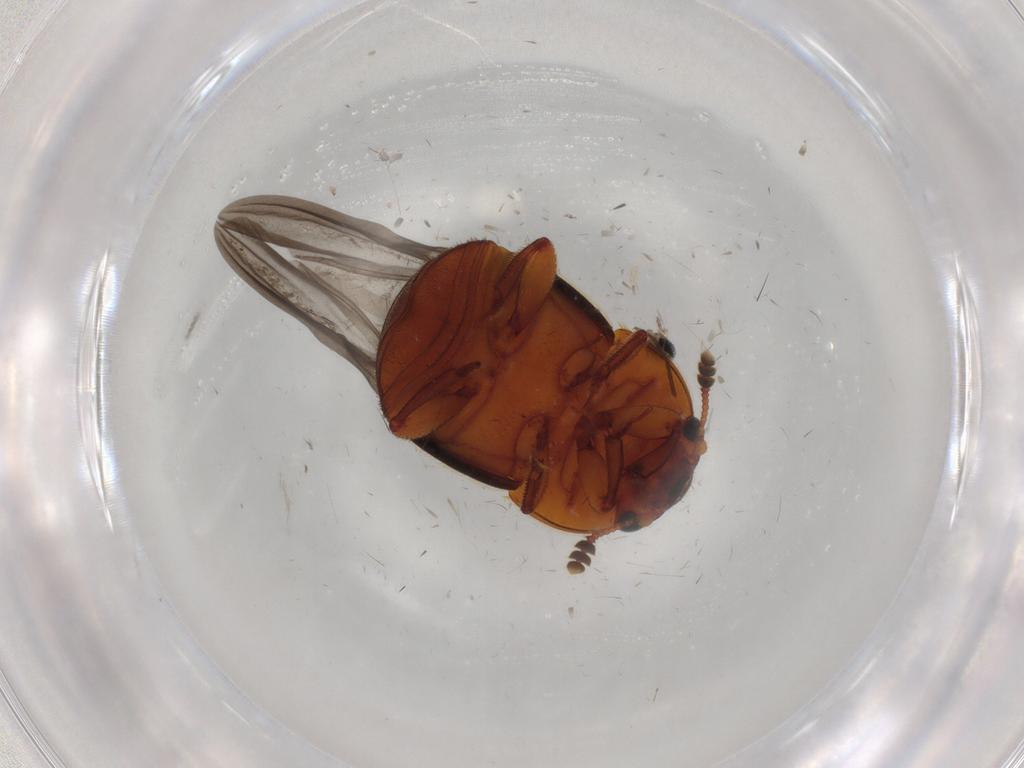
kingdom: Animalia
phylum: Arthropoda
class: Insecta
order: Coleoptera
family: Nitidulidae
